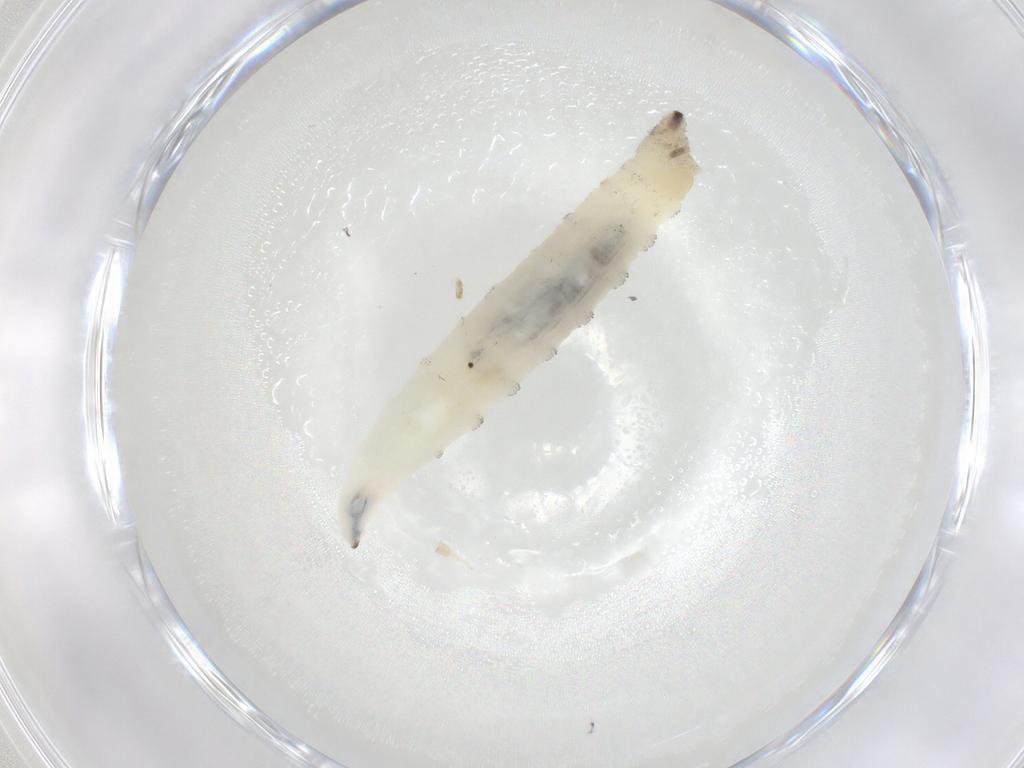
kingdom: Animalia
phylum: Arthropoda
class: Insecta
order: Diptera
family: Drosophilidae
